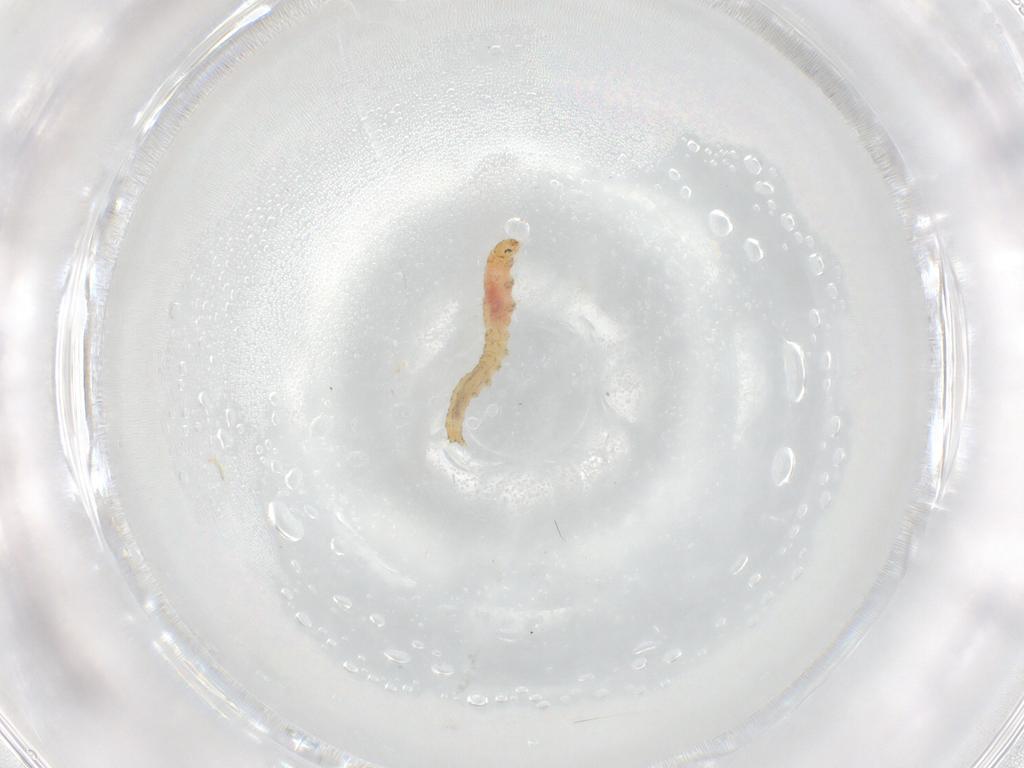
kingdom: Animalia
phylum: Arthropoda
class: Insecta
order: Lepidoptera
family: Gelechiidae
